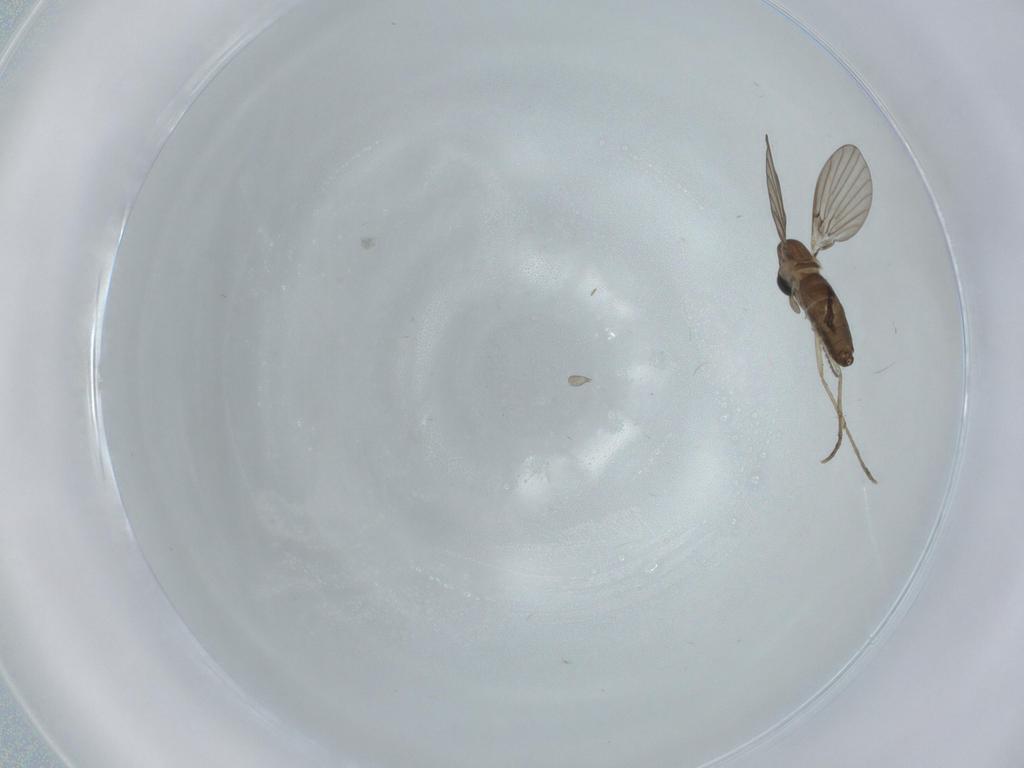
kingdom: Animalia
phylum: Arthropoda
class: Insecta
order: Diptera
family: Psychodidae
